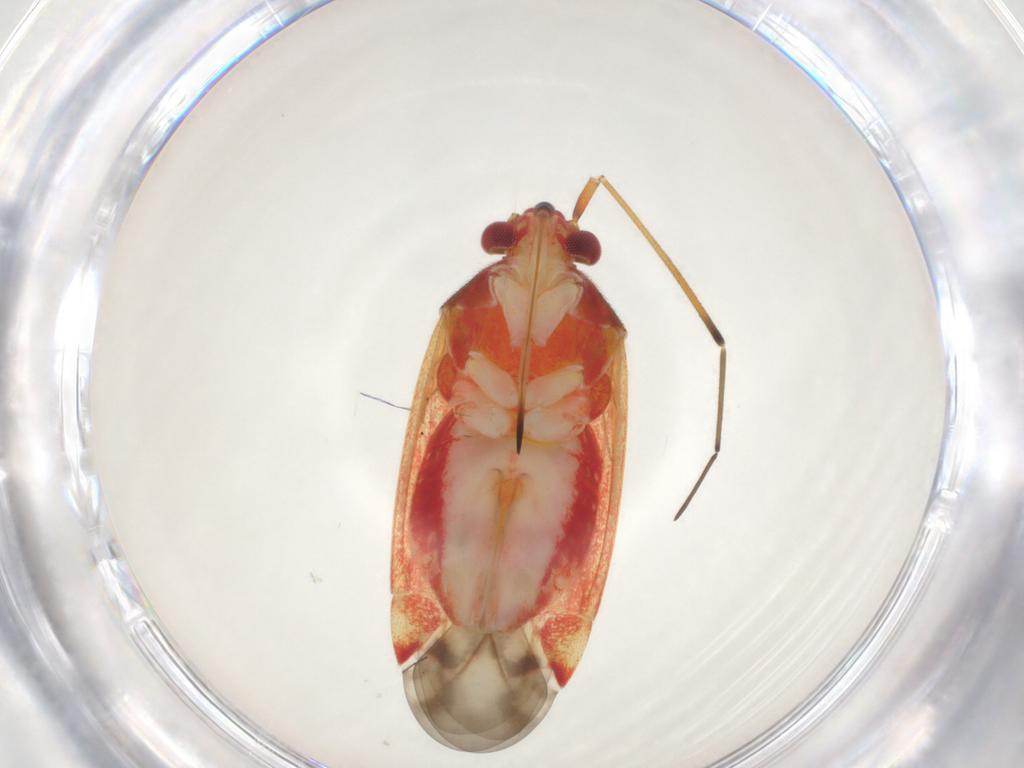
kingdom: Animalia
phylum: Arthropoda
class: Insecta
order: Hemiptera
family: Miridae
